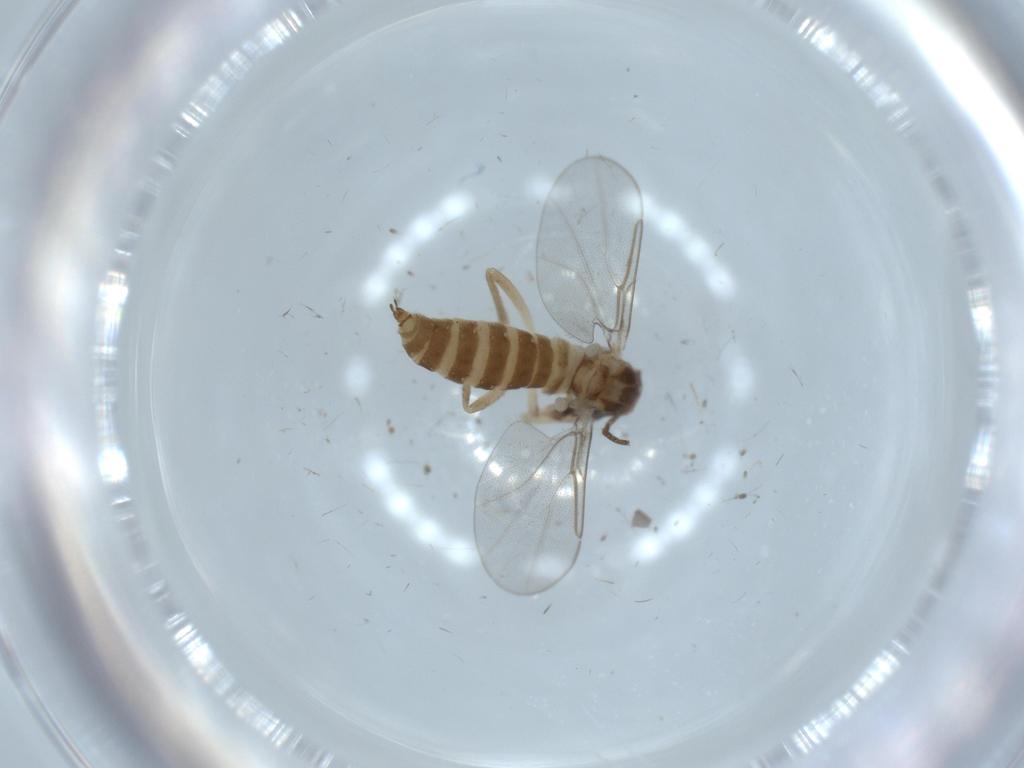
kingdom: Animalia
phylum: Arthropoda
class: Insecta
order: Diptera
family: Cecidomyiidae
